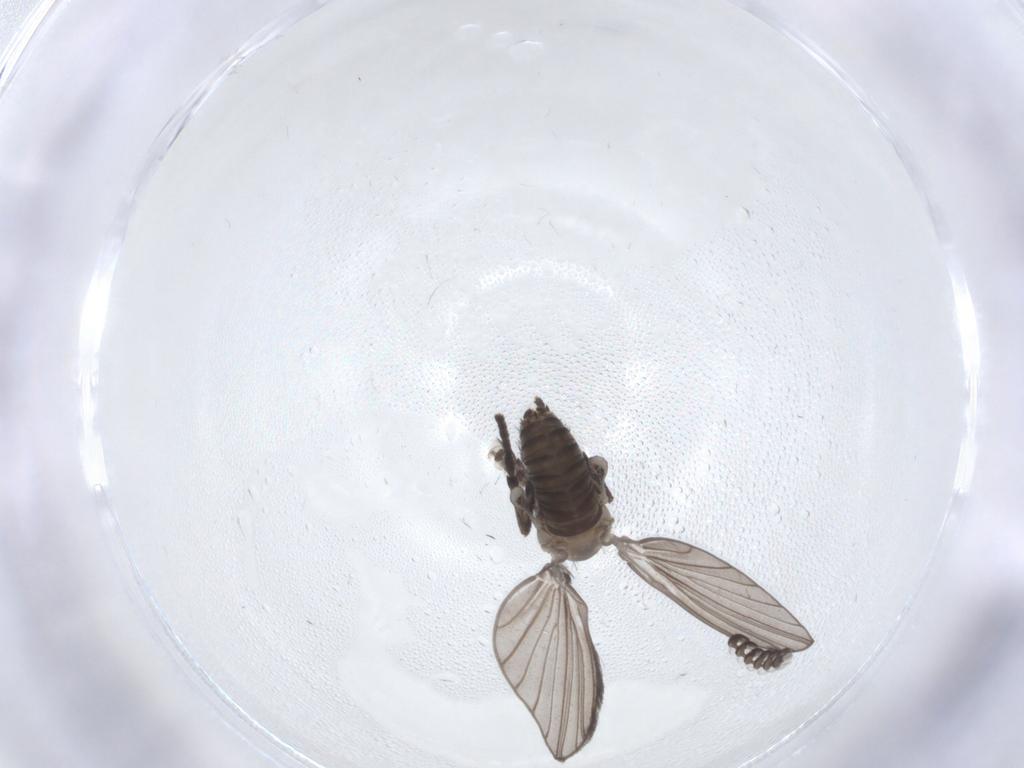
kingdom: Animalia
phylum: Arthropoda
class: Insecta
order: Diptera
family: Psychodidae
